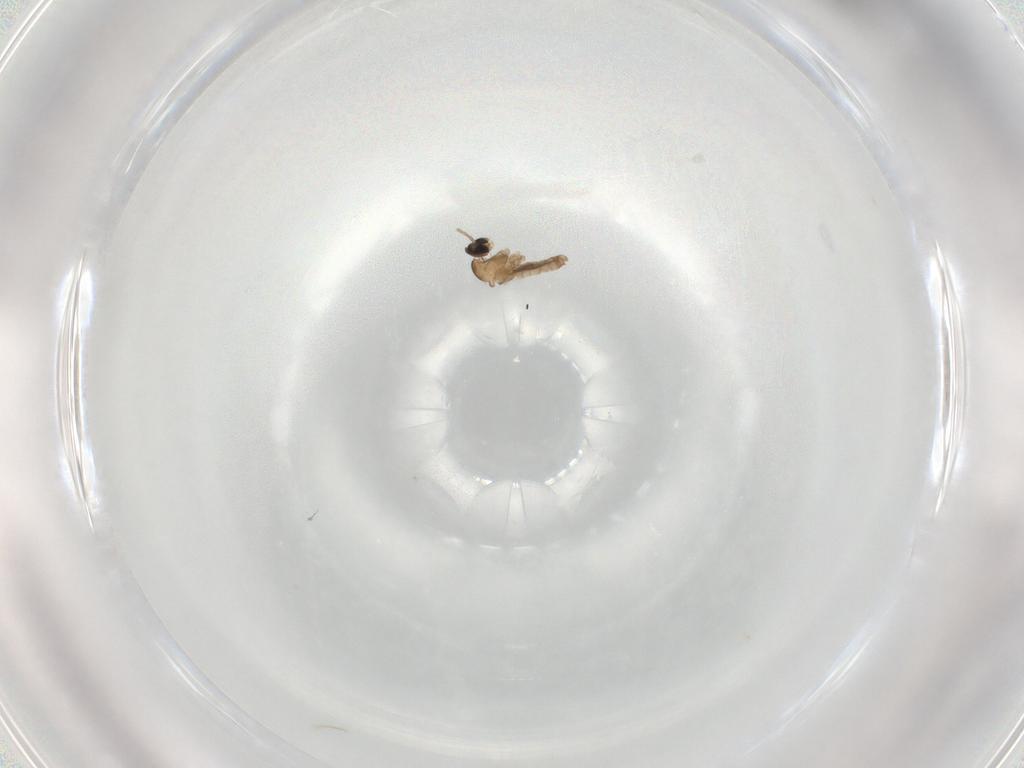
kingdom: Animalia
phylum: Arthropoda
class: Insecta
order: Diptera
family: Cecidomyiidae
